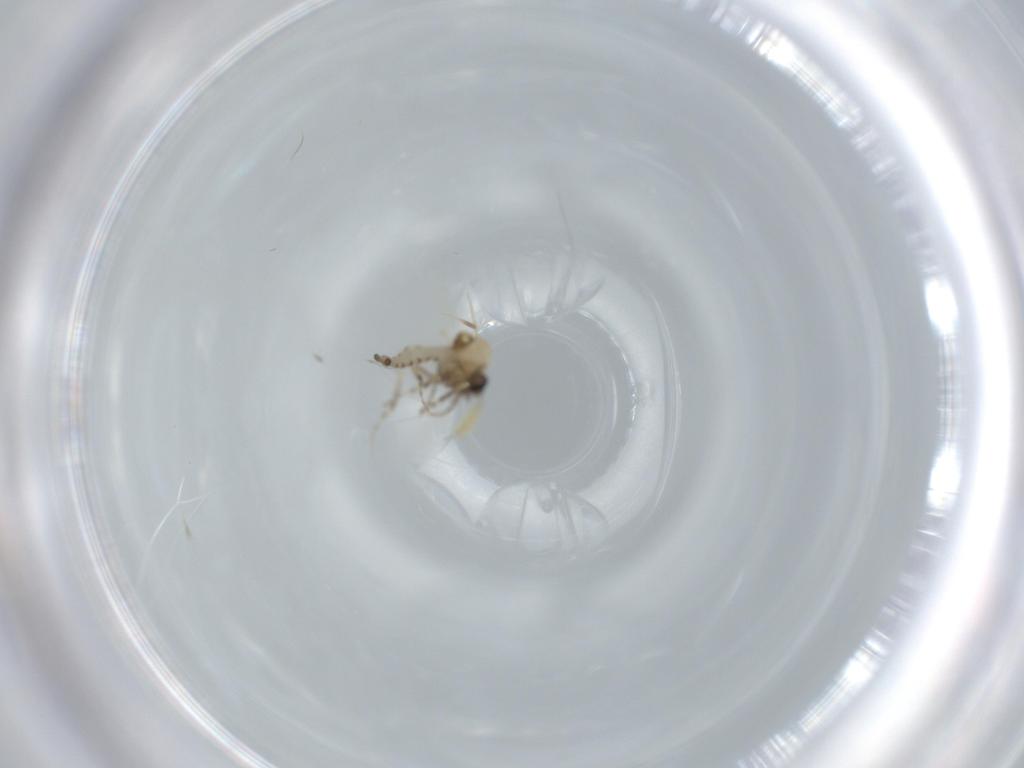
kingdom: Animalia
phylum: Arthropoda
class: Insecta
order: Diptera
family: Ceratopogonidae
